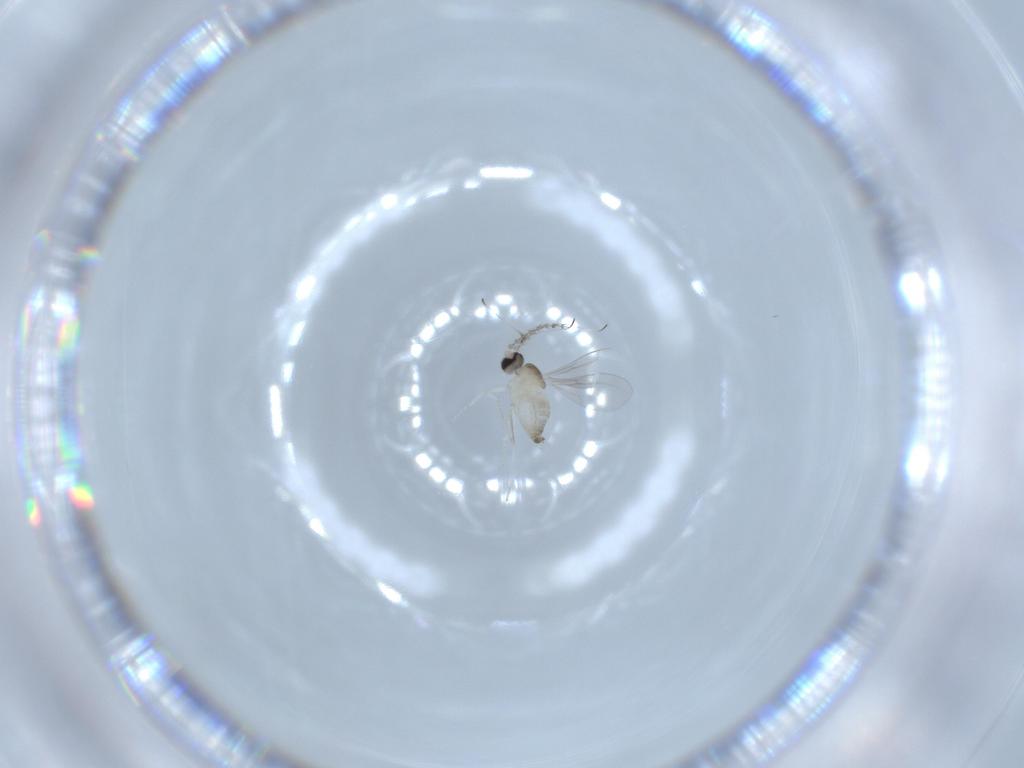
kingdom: Animalia
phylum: Arthropoda
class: Insecta
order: Diptera
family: Cecidomyiidae
